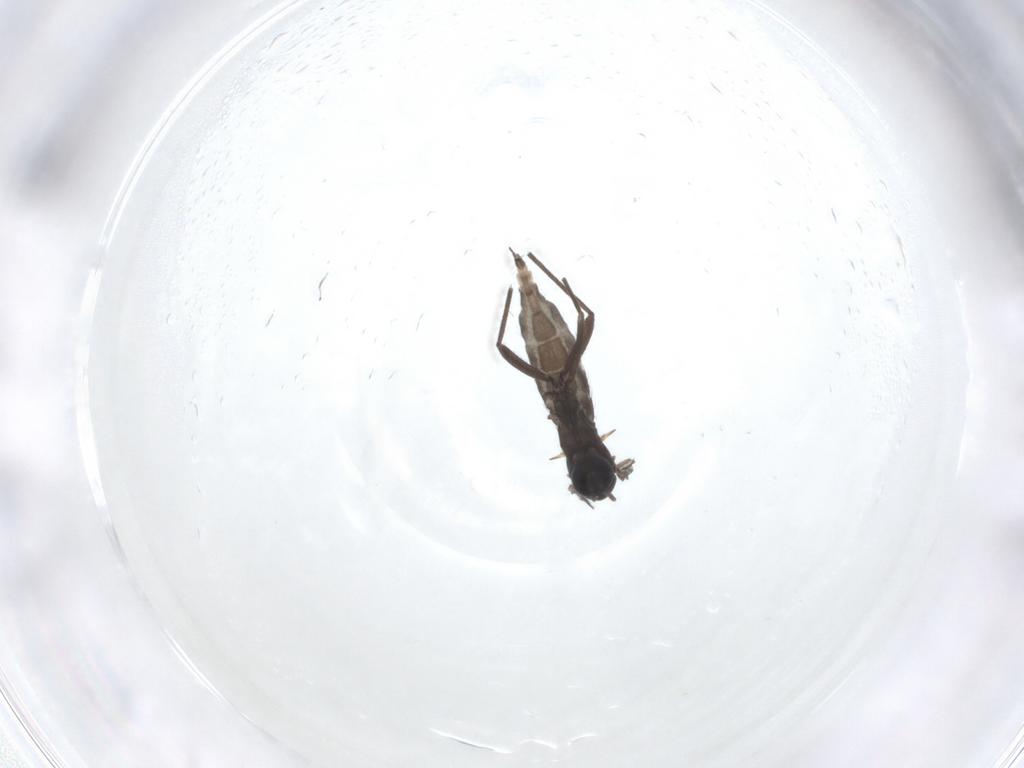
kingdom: Animalia
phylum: Arthropoda
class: Insecta
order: Diptera
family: Sciaridae
